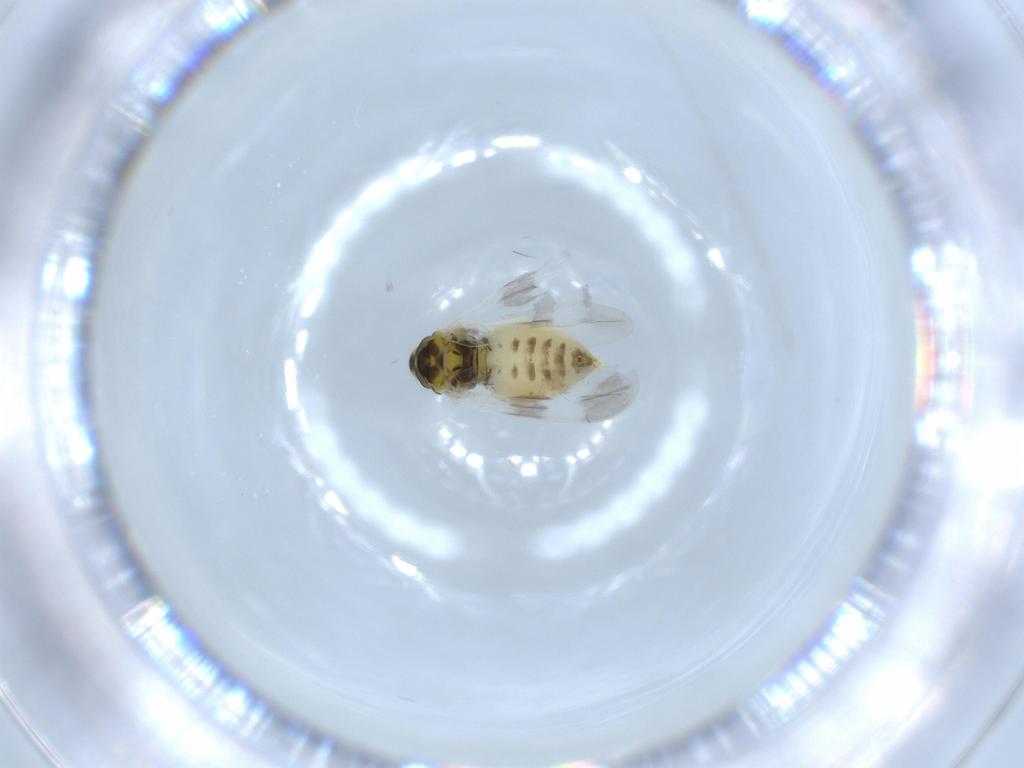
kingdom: Animalia
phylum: Arthropoda
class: Insecta
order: Hemiptera
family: Aleyrodidae
